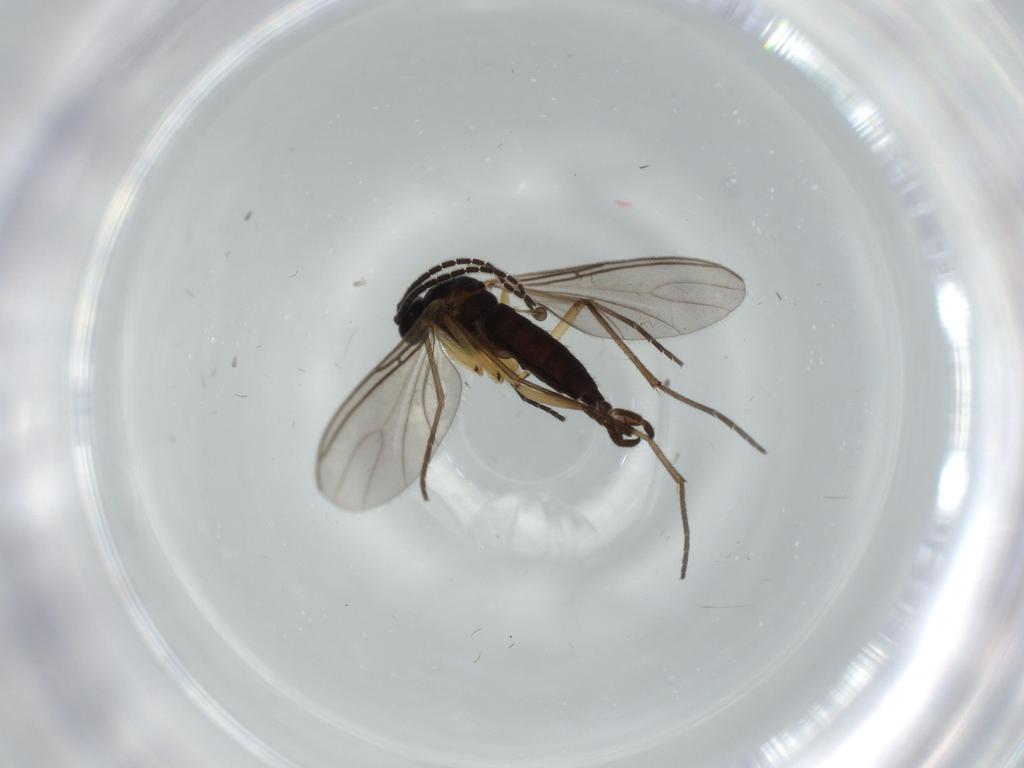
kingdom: Animalia
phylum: Arthropoda
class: Insecta
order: Diptera
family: Sciaridae
